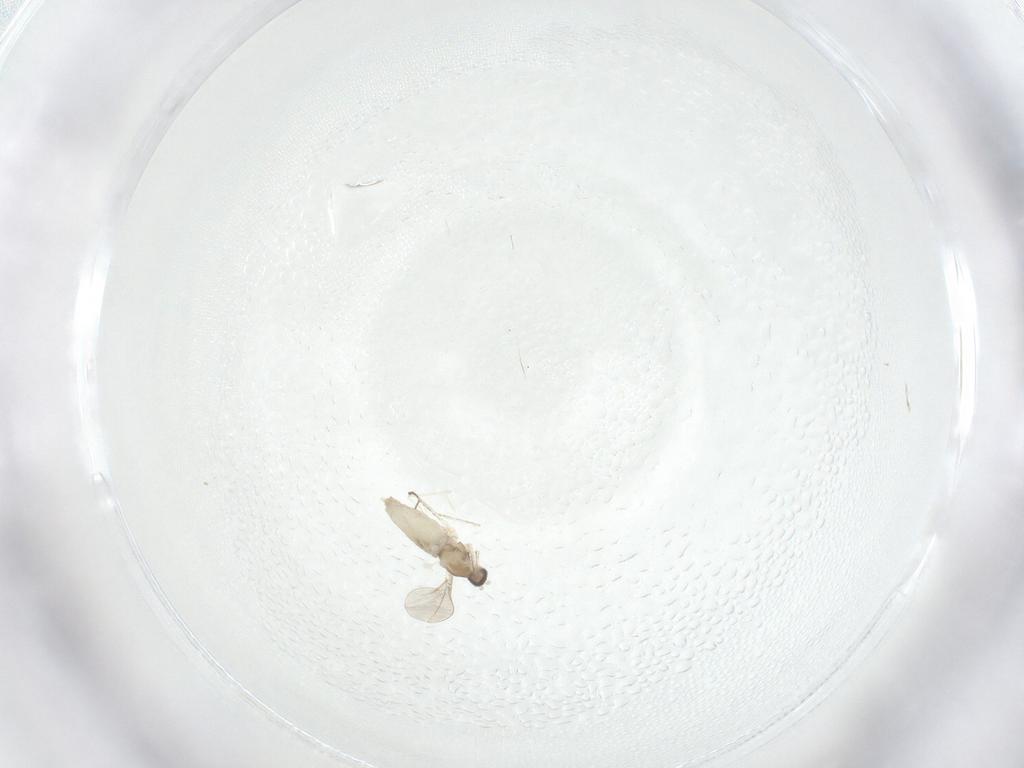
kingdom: Animalia
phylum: Arthropoda
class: Insecta
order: Diptera
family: Cecidomyiidae
